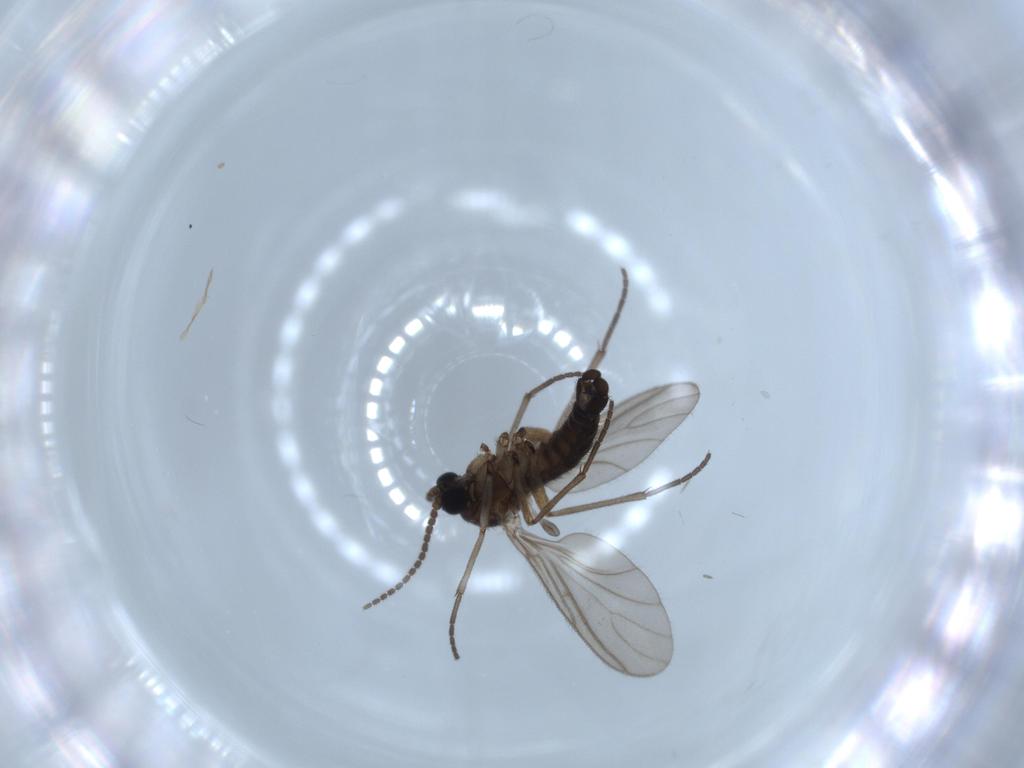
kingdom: Animalia
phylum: Arthropoda
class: Insecta
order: Diptera
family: Sciaridae
